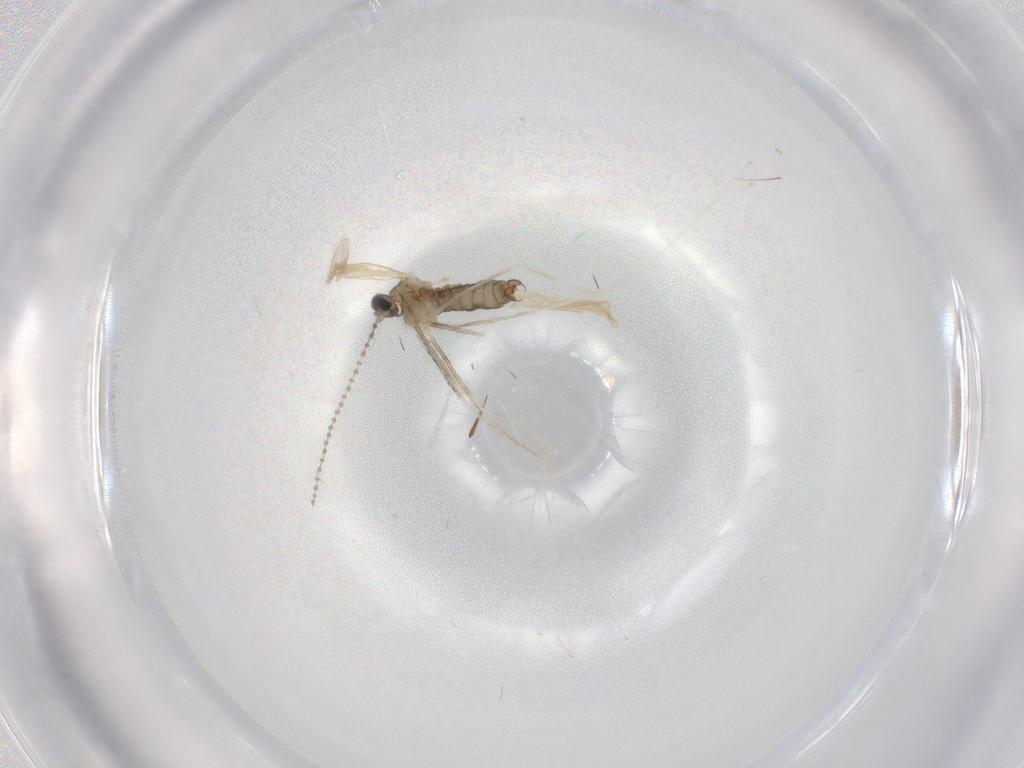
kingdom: Animalia
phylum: Arthropoda
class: Insecta
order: Diptera
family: Cecidomyiidae
